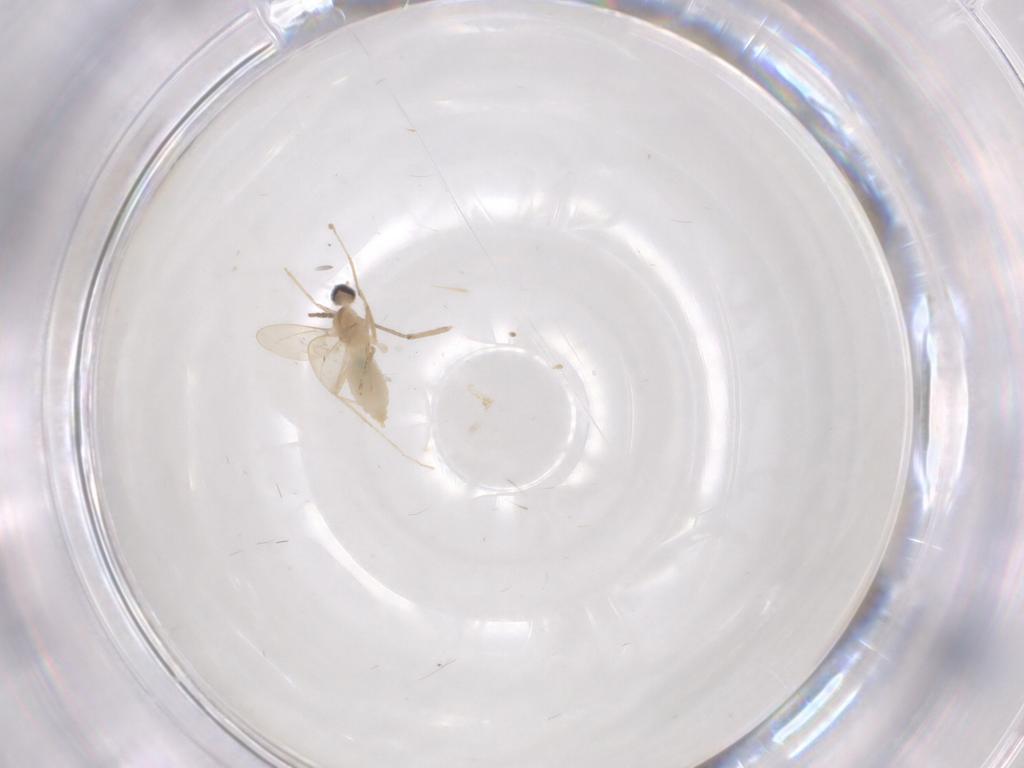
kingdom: Animalia
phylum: Arthropoda
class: Insecta
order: Diptera
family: Cecidomyiidae
